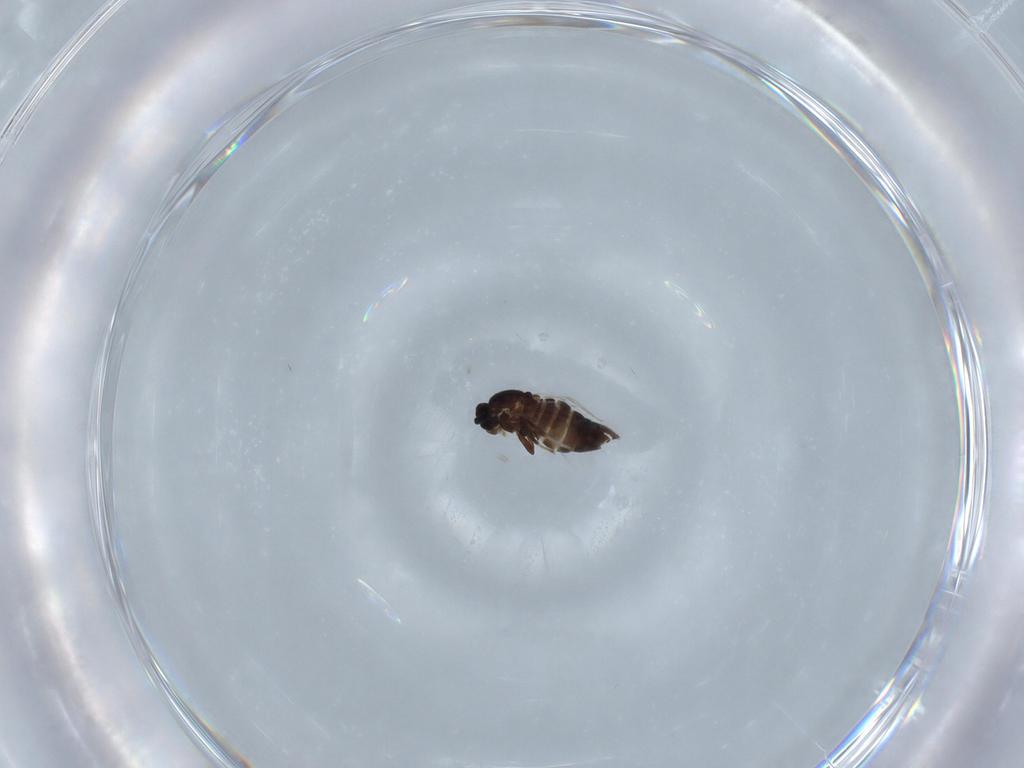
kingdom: Animalia
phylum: Arthropoda
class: Insecta
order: Diptera
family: Scatopsidae
